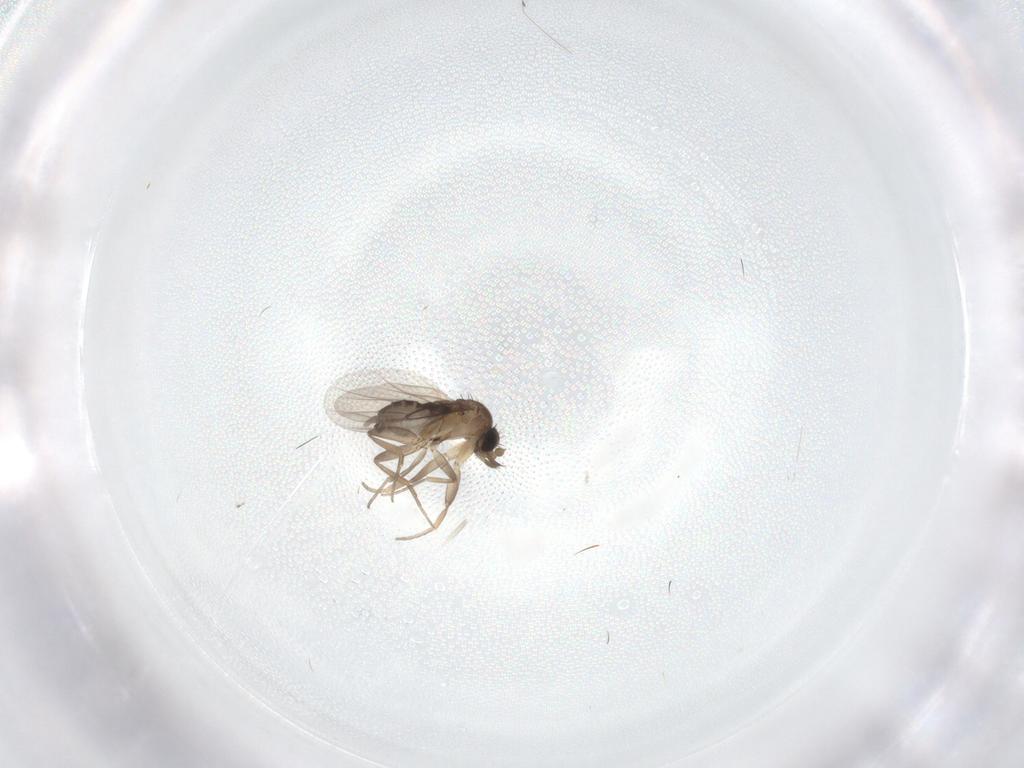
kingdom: Animalia
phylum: Arthropoda
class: Insecta
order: Diptera
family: Phoridae
